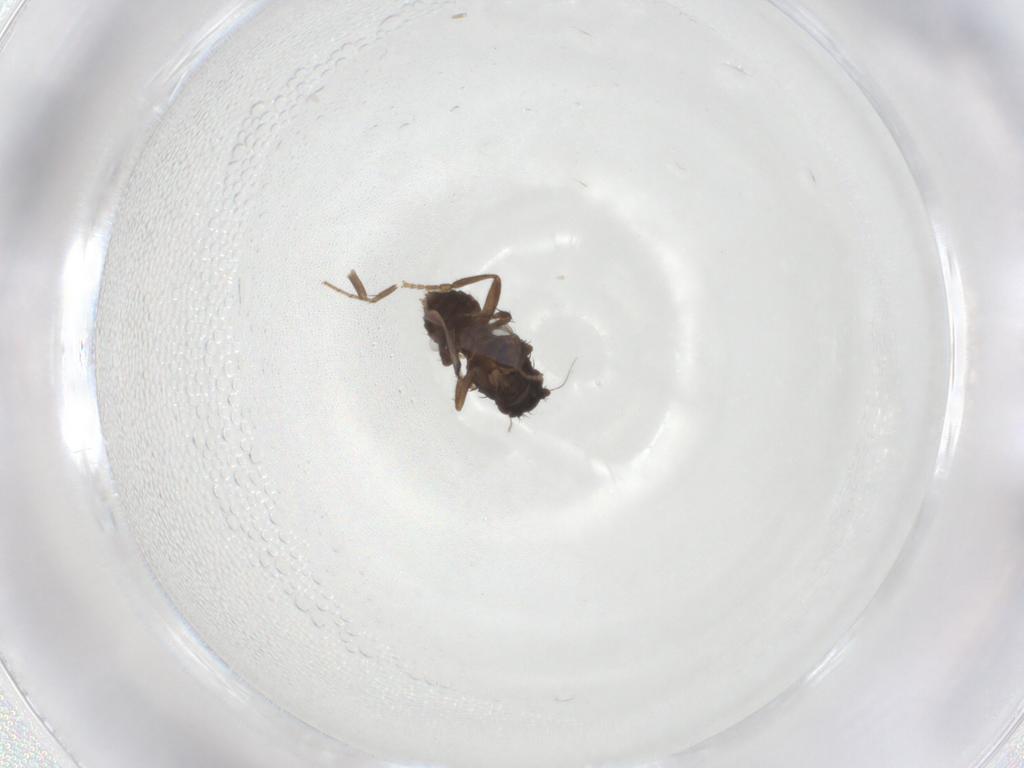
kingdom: Animalia
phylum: Arthropoda
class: Insecta
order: Diptera
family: Sphaeroceridae
